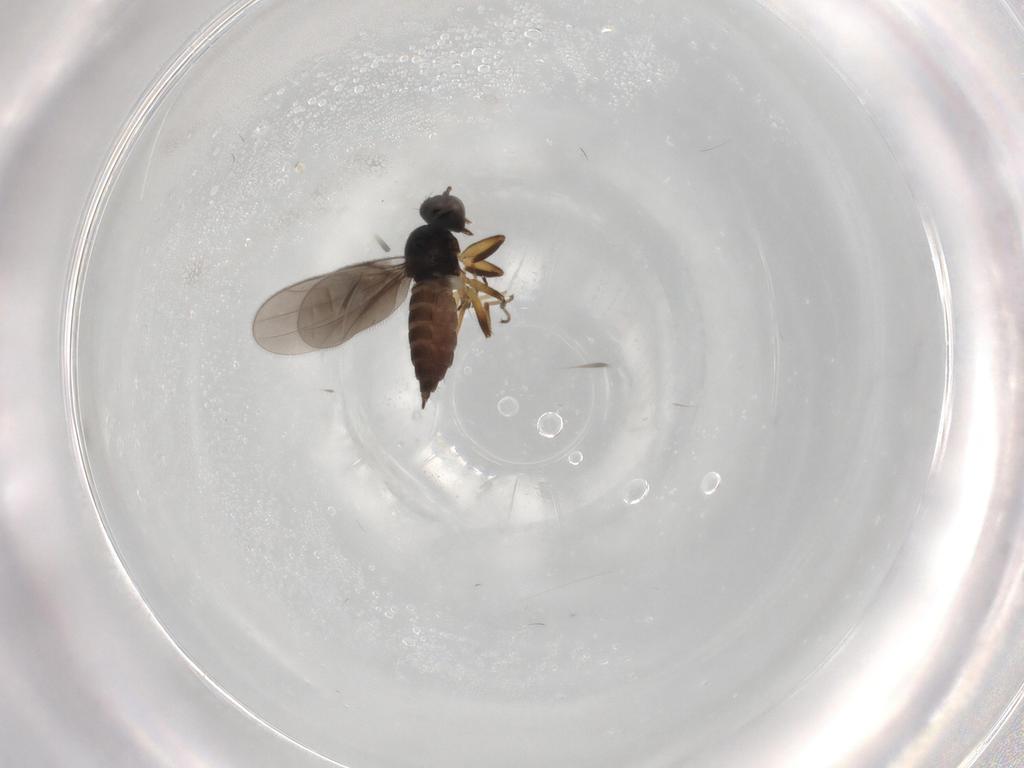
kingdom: Animalia
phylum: Arthropoda
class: Insecta
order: Diptera
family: Hybotidae
